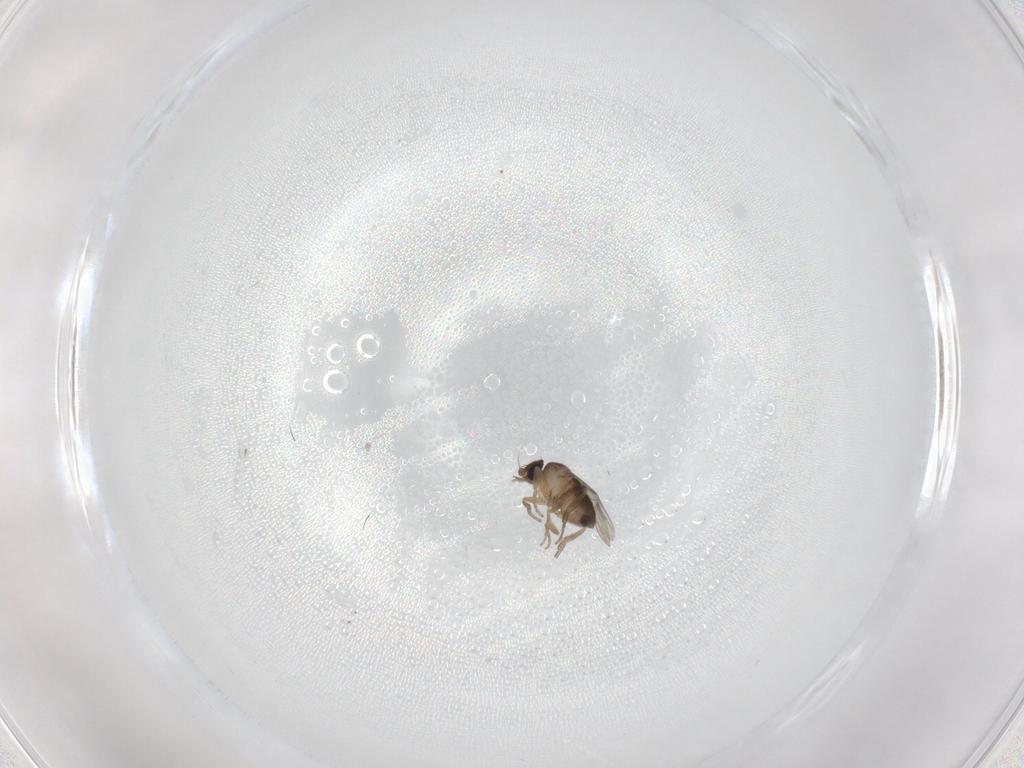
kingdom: Animalia
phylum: Arthropoda
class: Insecta
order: Diptera
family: Phoridae
